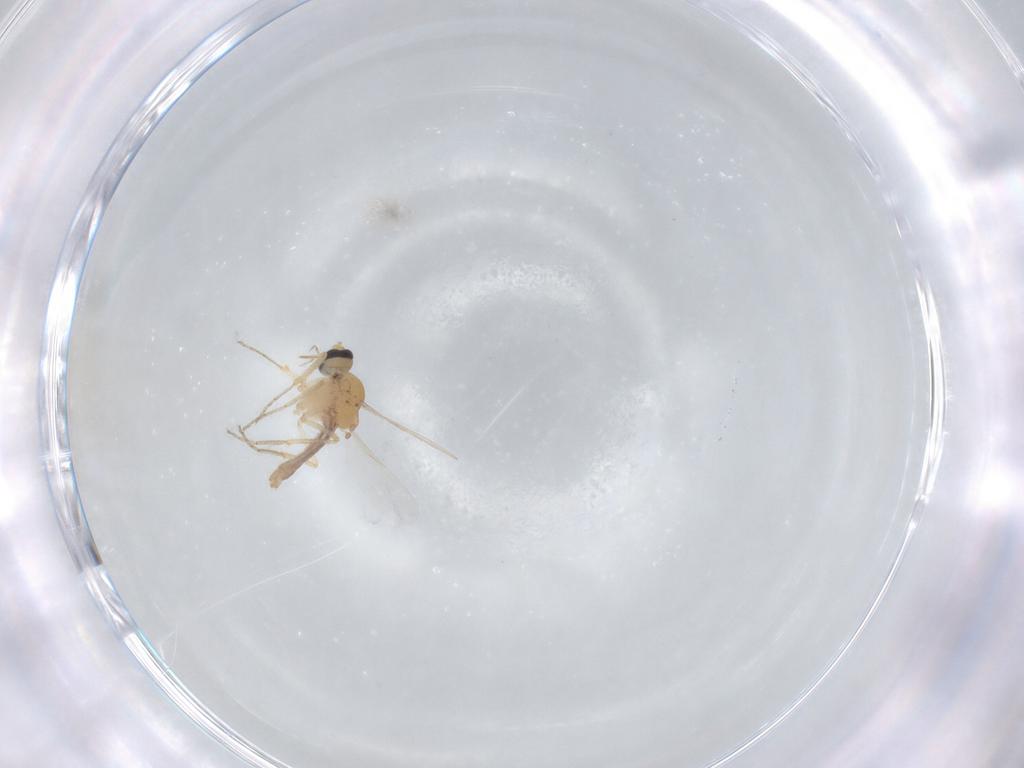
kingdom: Animalia
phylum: Arthropoda
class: Insecta
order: Diptera
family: Ceratopogonidae
